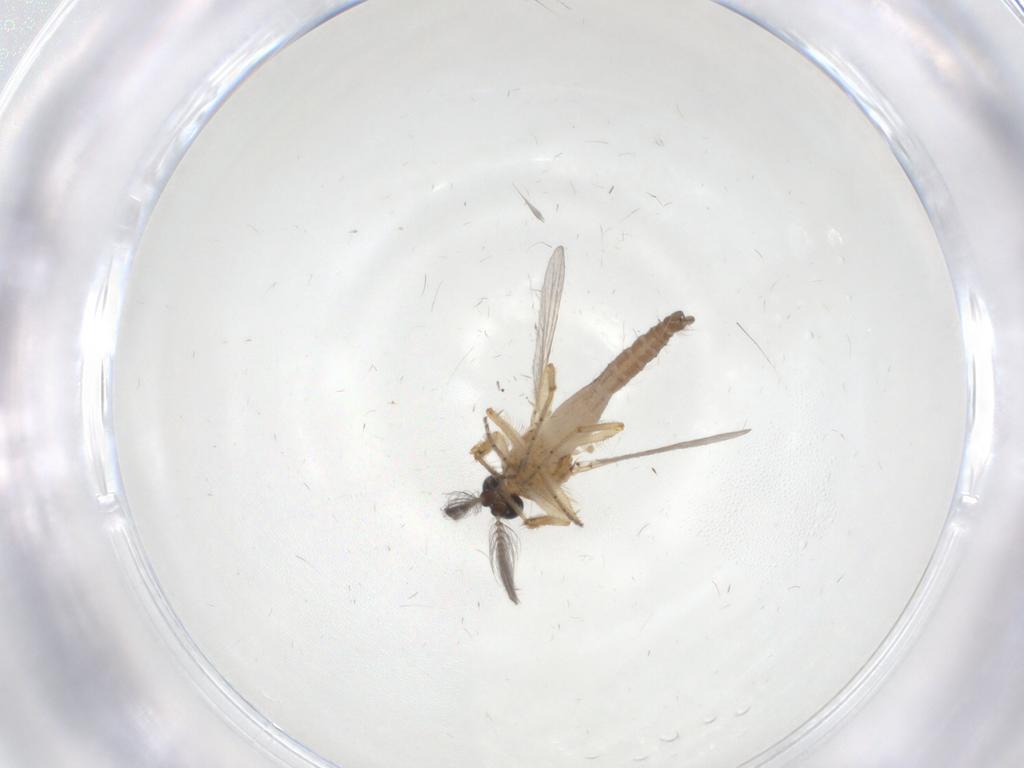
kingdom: Animalia
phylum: Arthropoda
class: Insecta
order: Diptera
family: Ceratopogonidae
